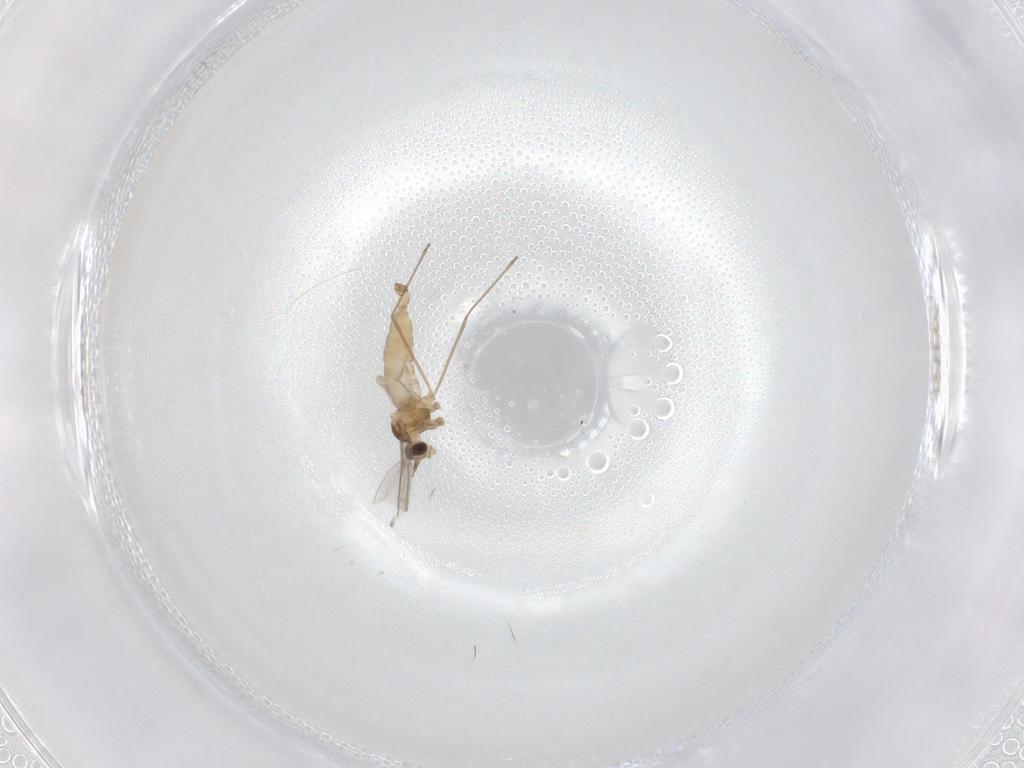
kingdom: Animalia
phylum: Arthropoda
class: Insecta
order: Diptera
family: Cecidomyiidae
